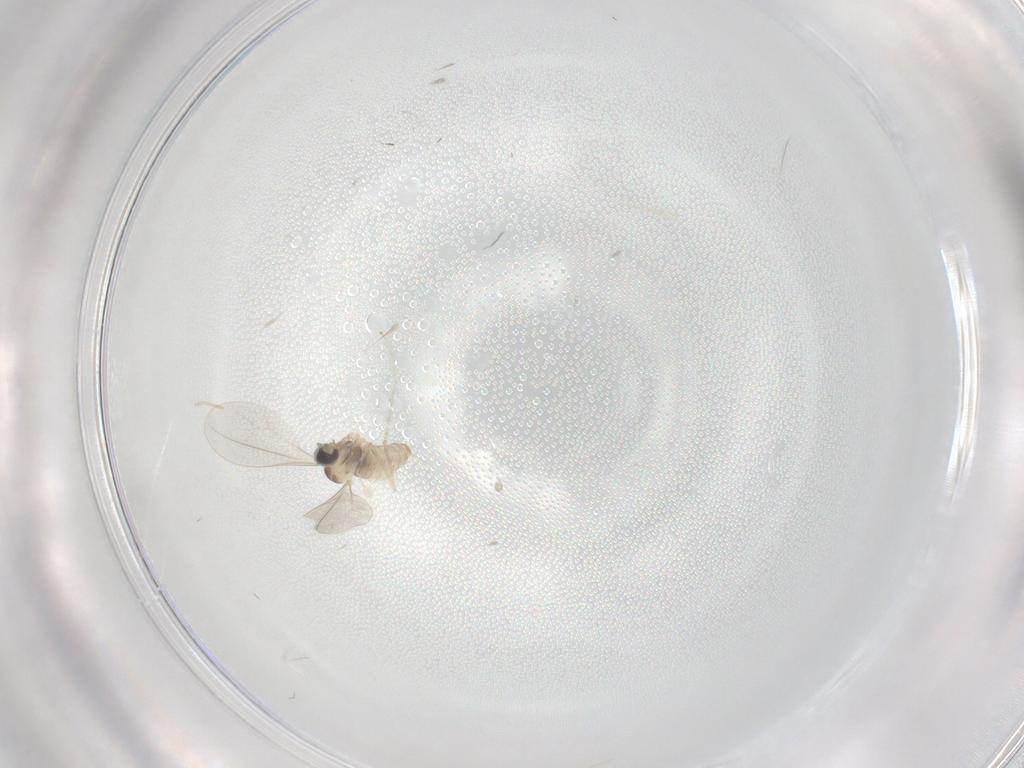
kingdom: Animalia
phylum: Arthropoda
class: Insecta
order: Diptera
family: Cecidomyiidae
